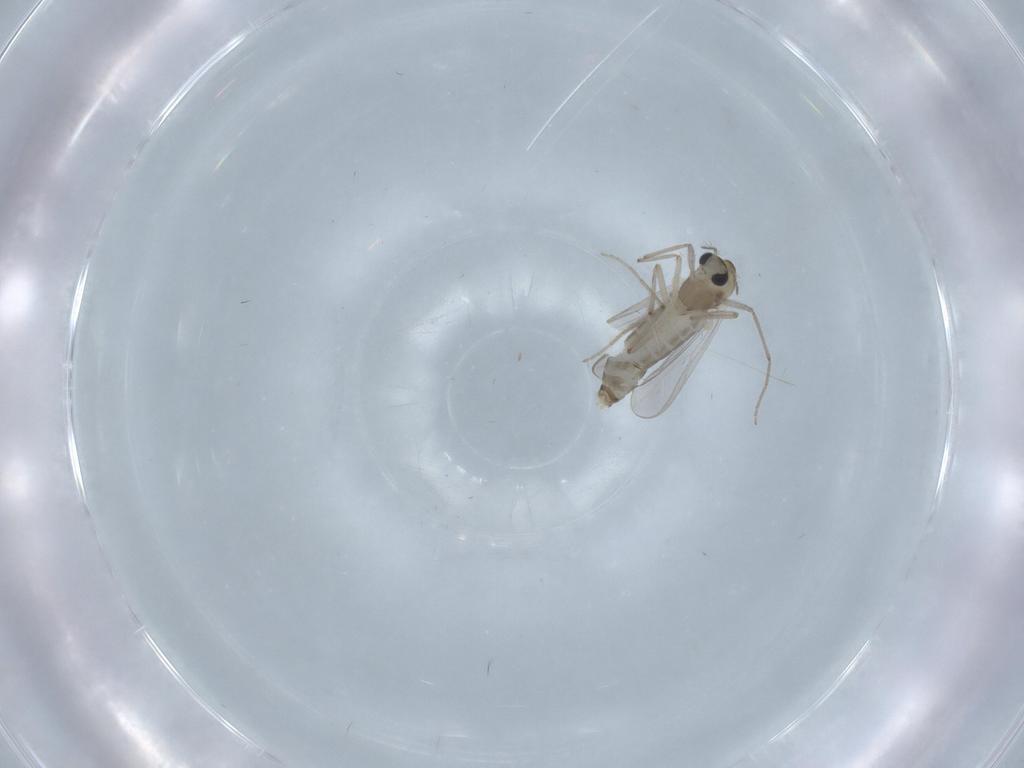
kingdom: Animalia
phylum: Arthropoda
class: Insecta
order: Diptera
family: Chironomidae
